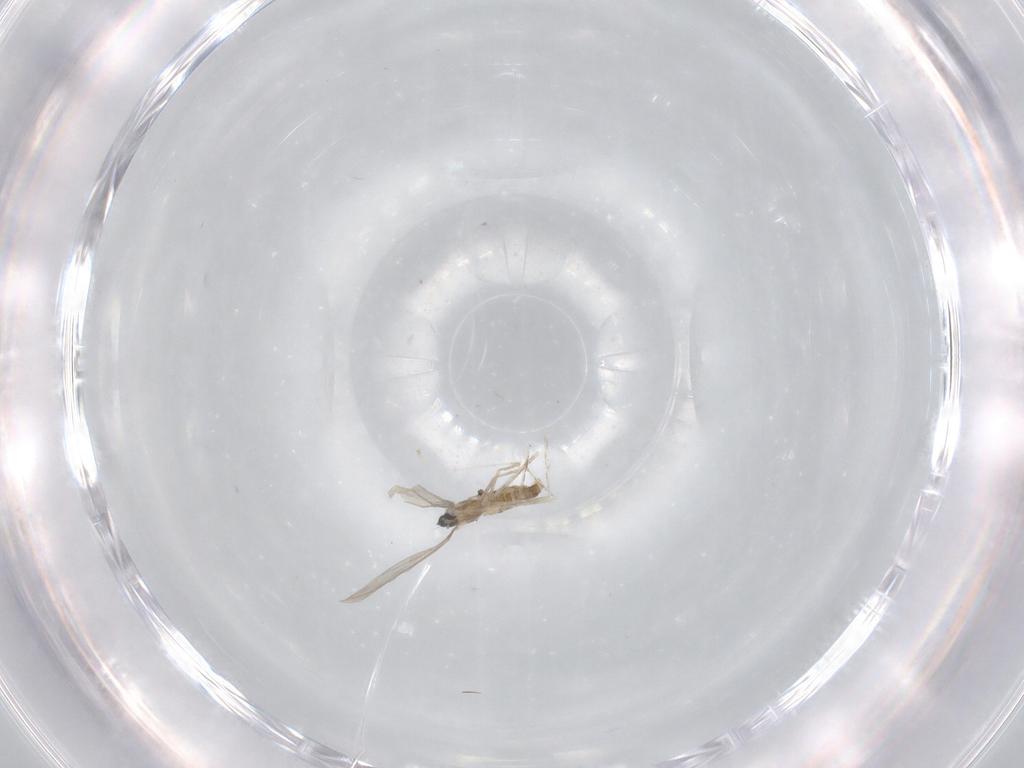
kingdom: Animalia
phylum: Arthropoda
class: Insecta
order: Diptera
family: Cecidomyiidae
